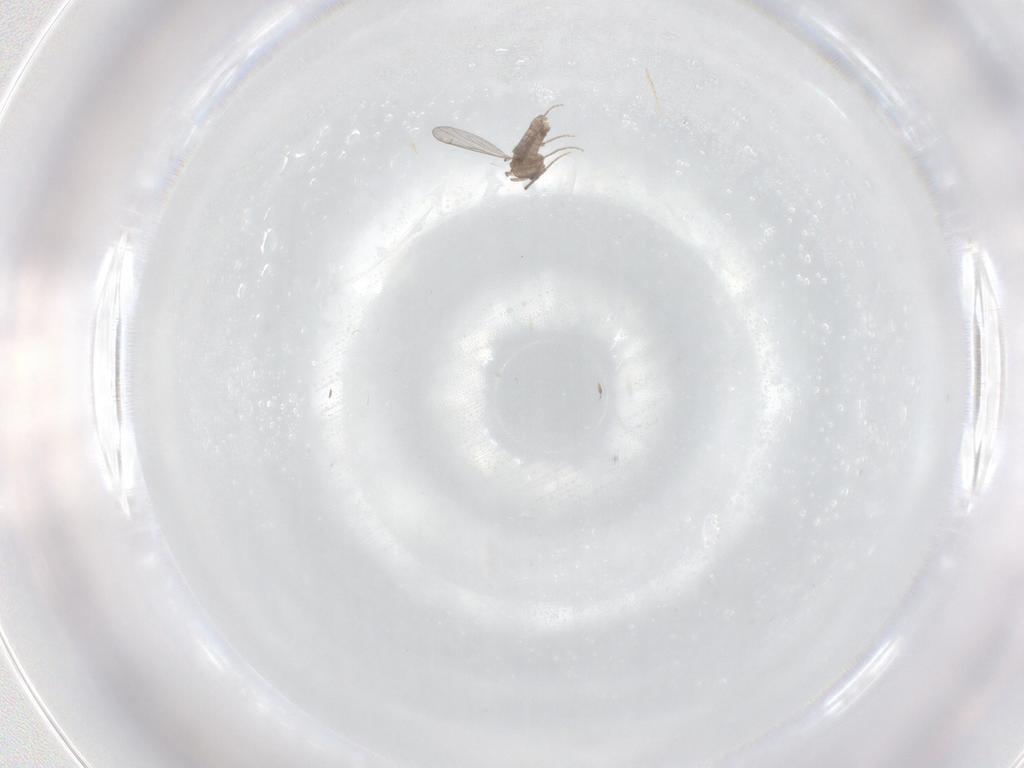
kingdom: Animalia
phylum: Arthropoda
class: Insecta
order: Diptera
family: Chironomidae
